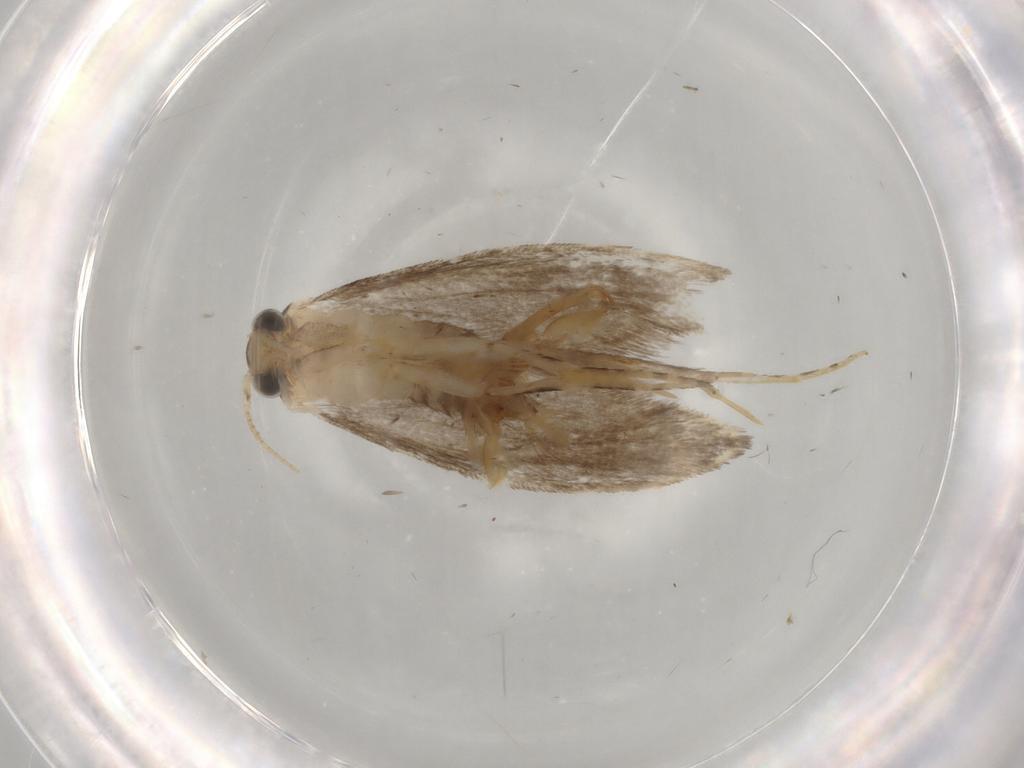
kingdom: Animalia
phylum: Arthropoda
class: Insecta
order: Lepidoptera
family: Tineidae
